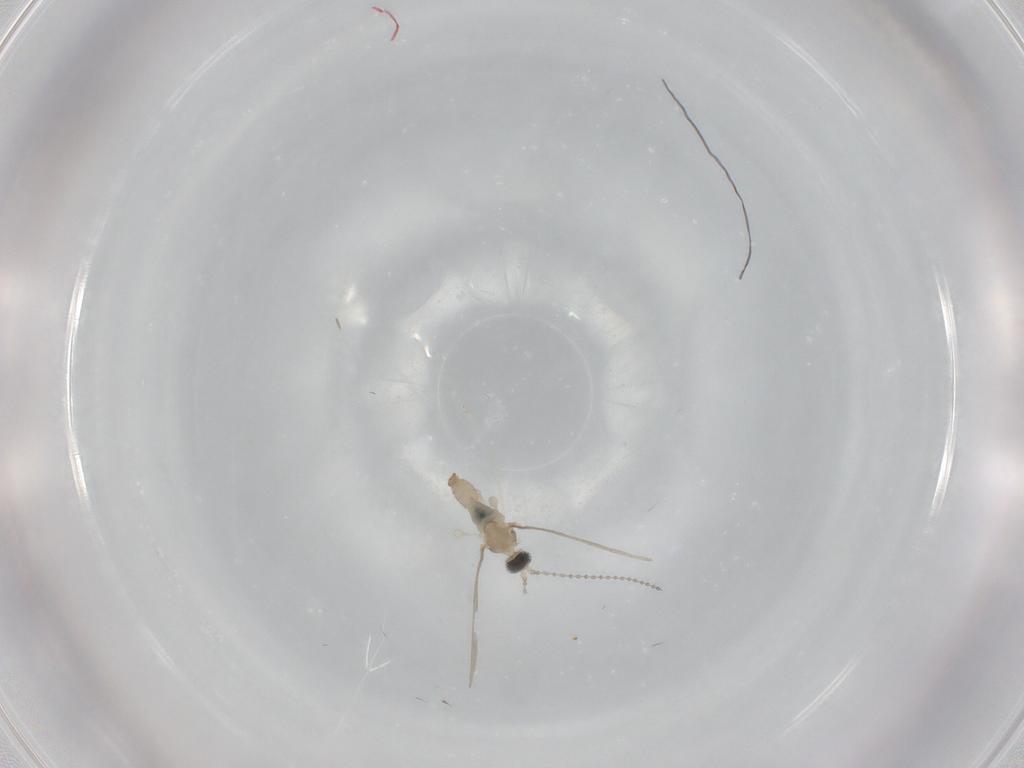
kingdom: Animalia
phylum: Arthropoda
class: Insecta
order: Diptera
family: Cecidomyiidae
